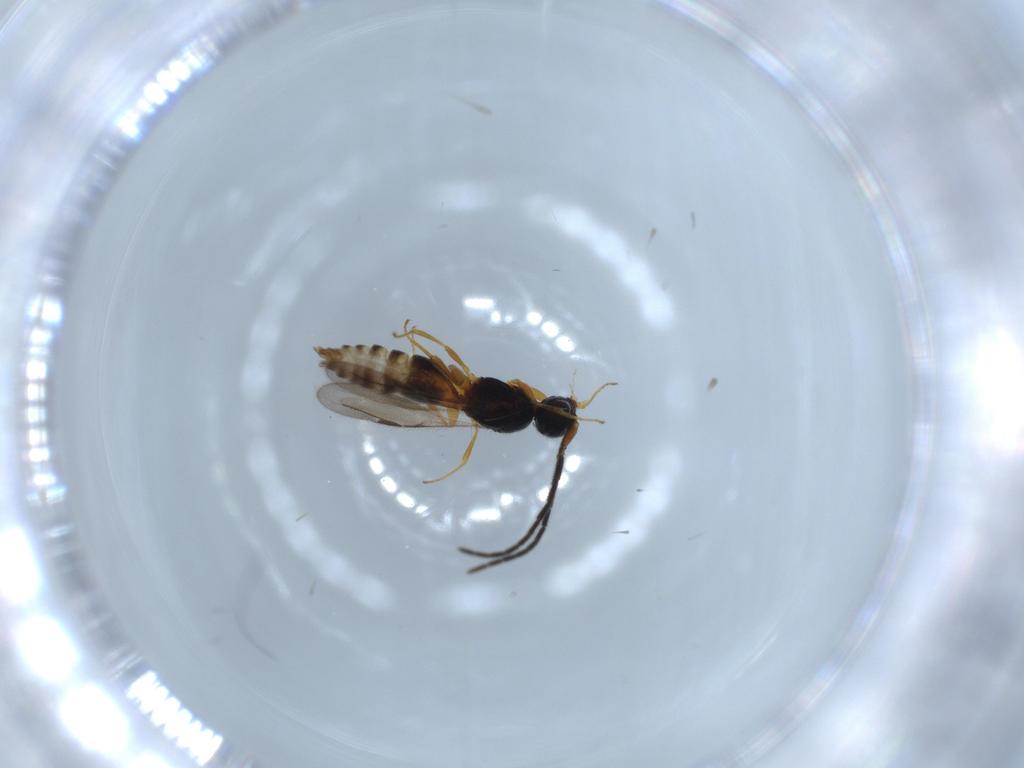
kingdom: Animalia
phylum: Arthropoda
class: Insecta
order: Hymenoptera
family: Megaspilidae
